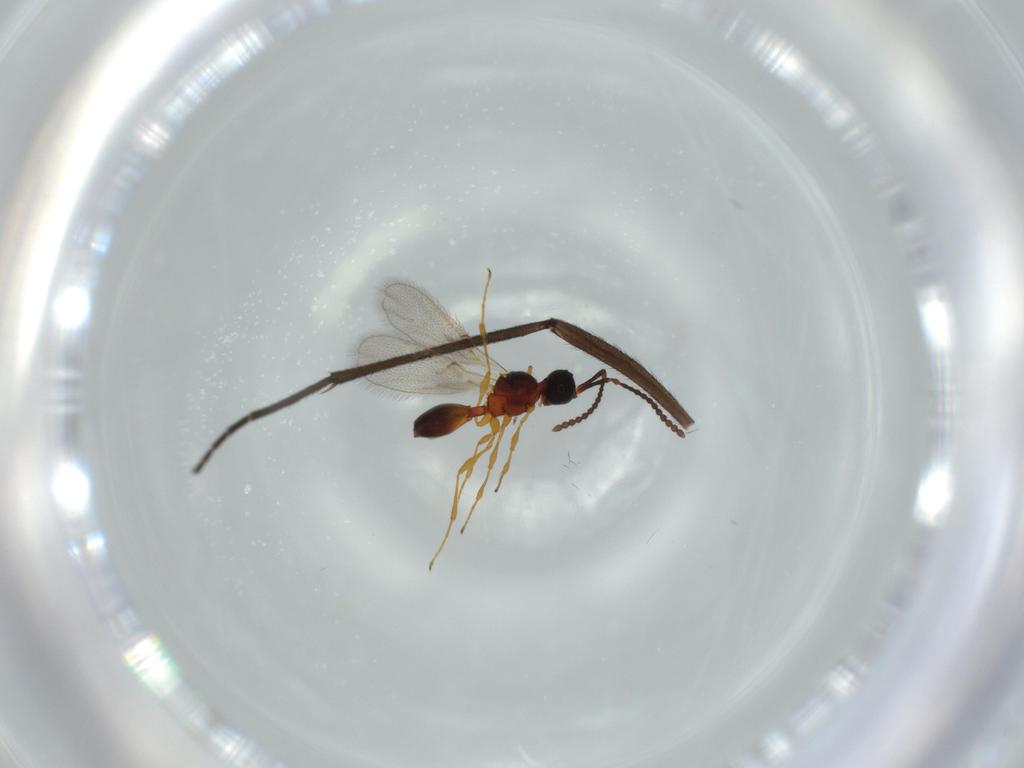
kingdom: Animalia
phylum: Arthropoda
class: Insecta
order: Hymenoptera
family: Diapriidae
